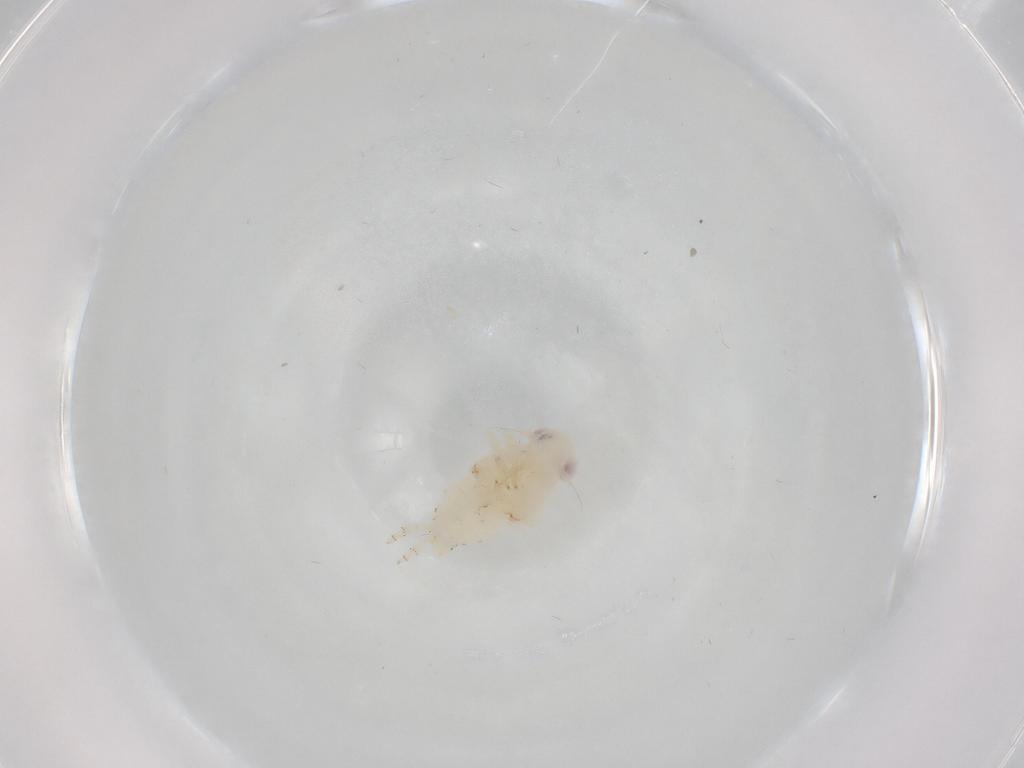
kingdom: Animalia
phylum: Arthropoda
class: Insecta
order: Hemiptera
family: Nogodinidae
